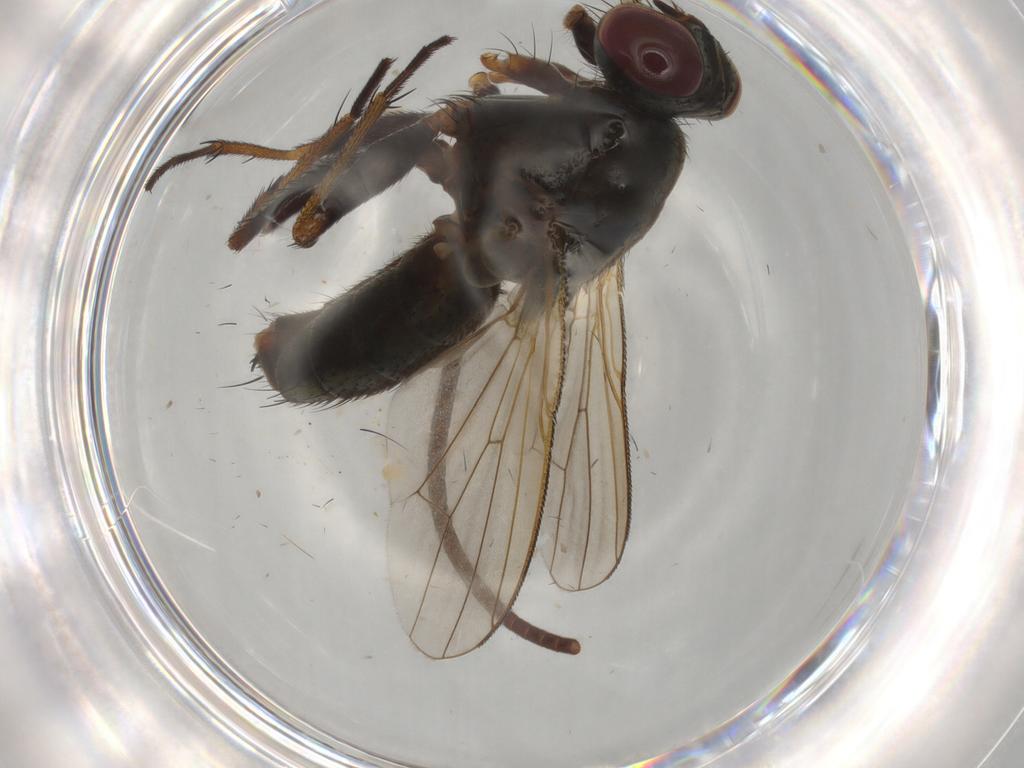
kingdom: Animalia
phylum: Arthropoda
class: Insecta
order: Diptera
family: Muscidae
